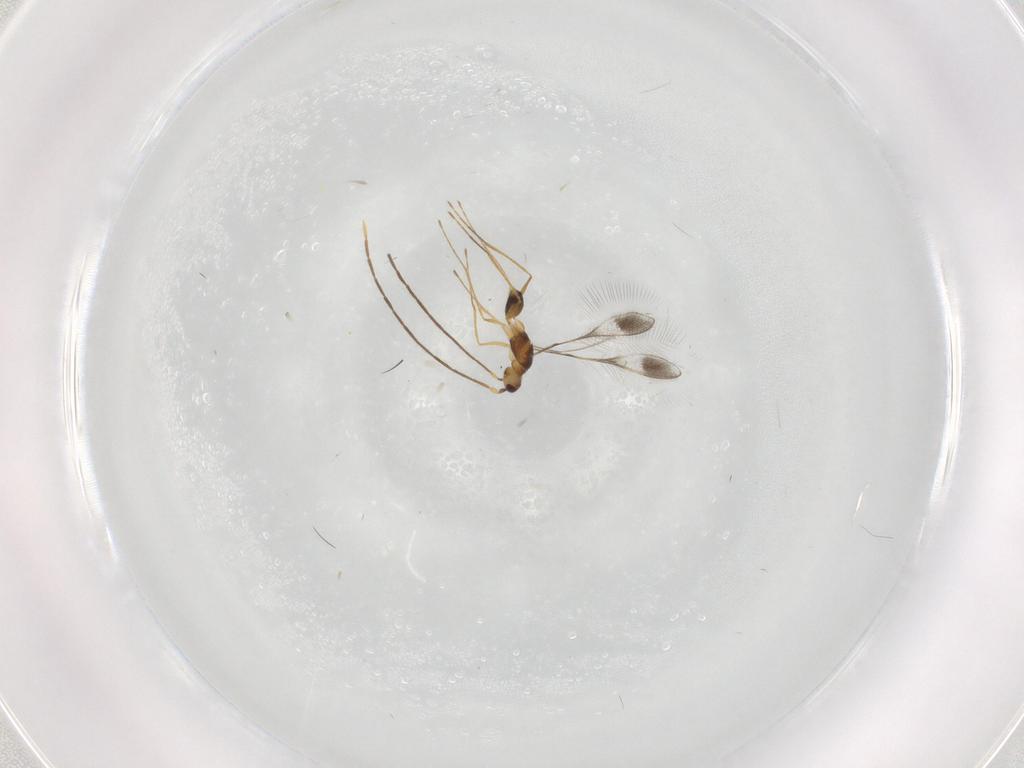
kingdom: Animalia
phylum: Arthropoda
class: Insecta
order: Hymenoptera
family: Mymaridae
